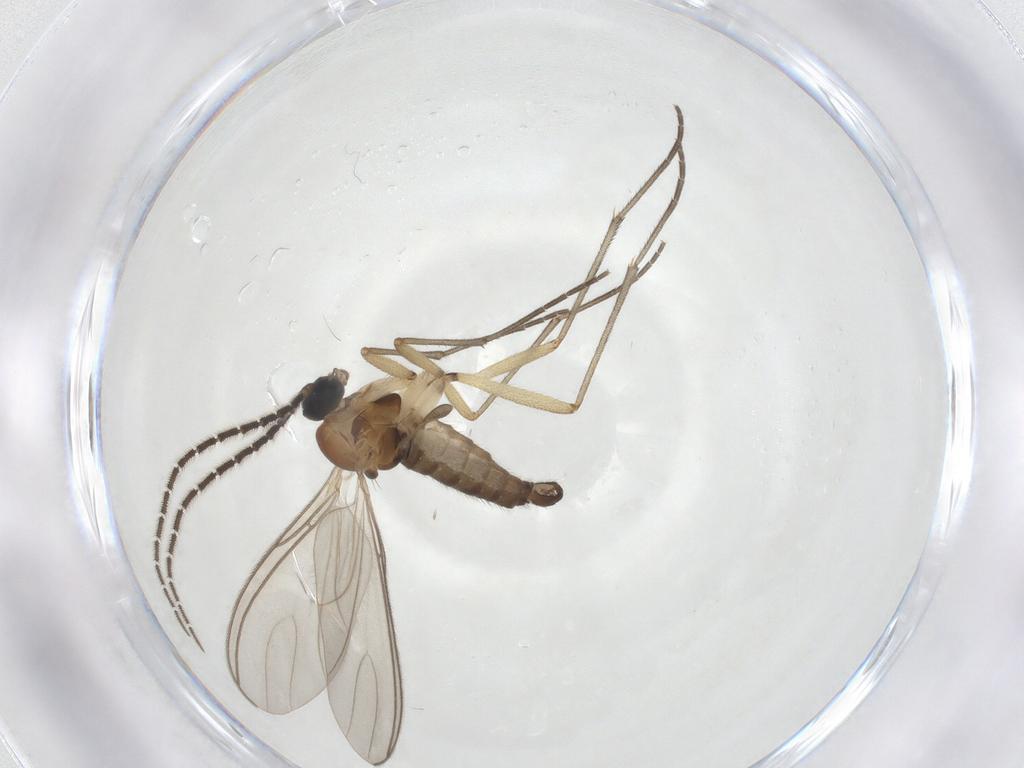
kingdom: Animalia
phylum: Arthropoda
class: Insecta
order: Diptera
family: Sciaridae
